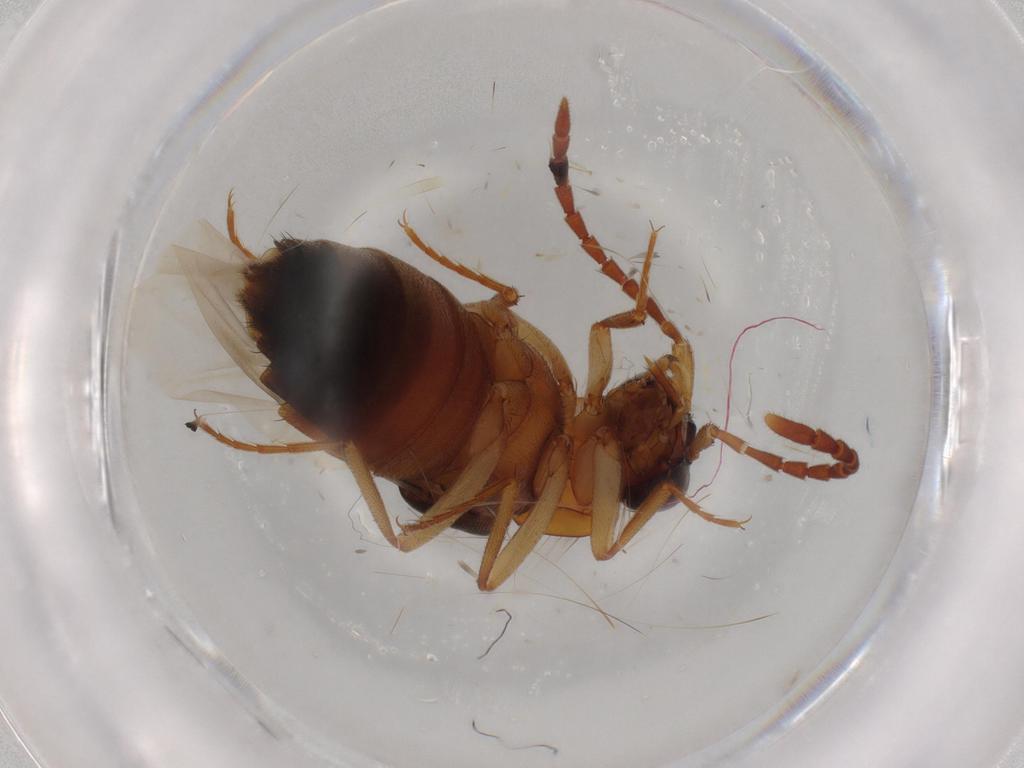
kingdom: Animalia
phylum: Arthropoda
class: Insecta
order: Coleoptera
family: Staphylinidae
